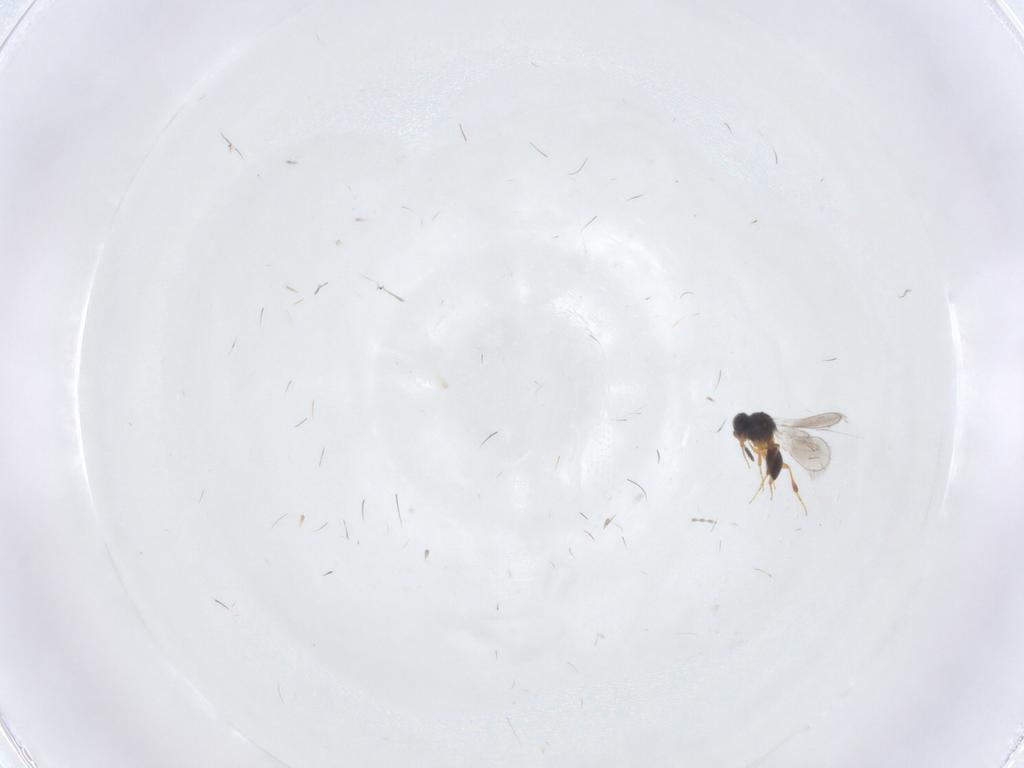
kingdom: Animalia
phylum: Arthropoda
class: Insecta
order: Hymenoptera
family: Platygastridae
